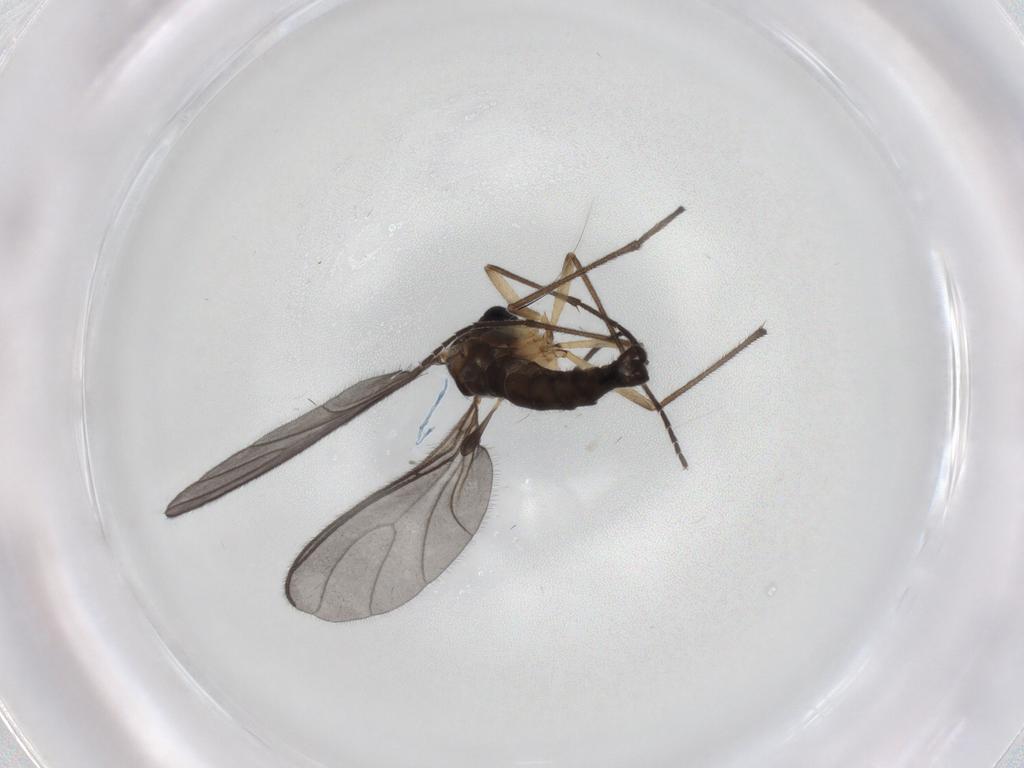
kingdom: Animalia
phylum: Arthropoda
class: Insecta
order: Diptera
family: Sciaridae
